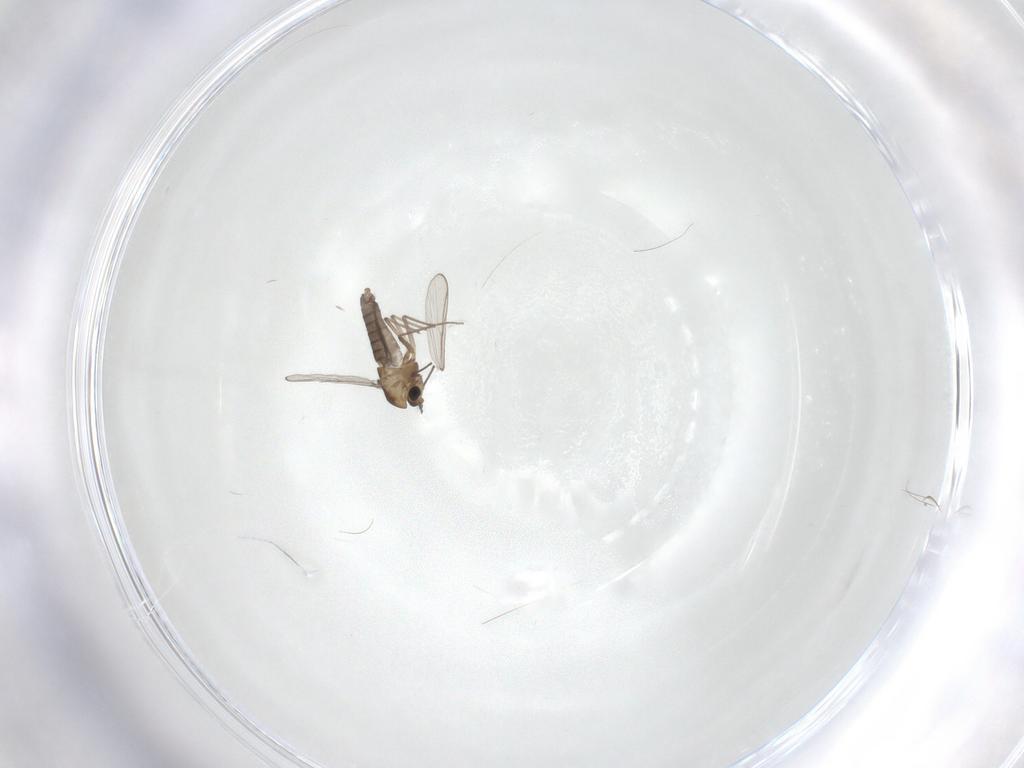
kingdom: Animalia
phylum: Arthropoda
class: Insecta
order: Diptera
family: Chironomidae
